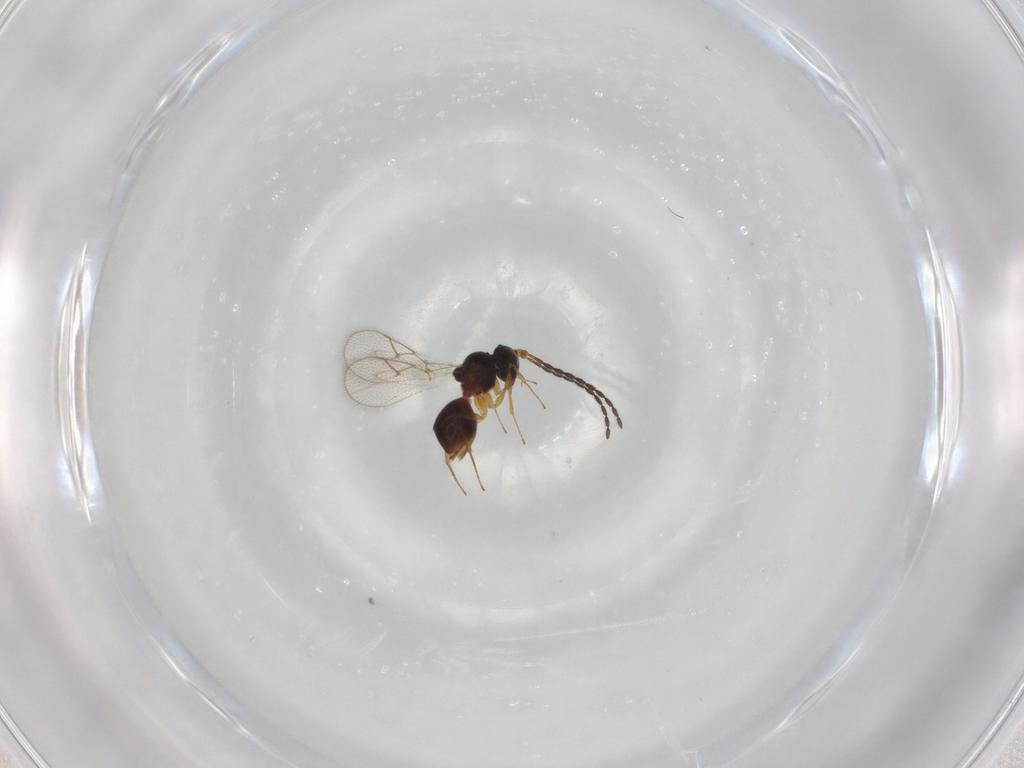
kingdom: Animalia
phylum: Arthropoda
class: Insecta
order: Hymenoptera
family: Figitidae
